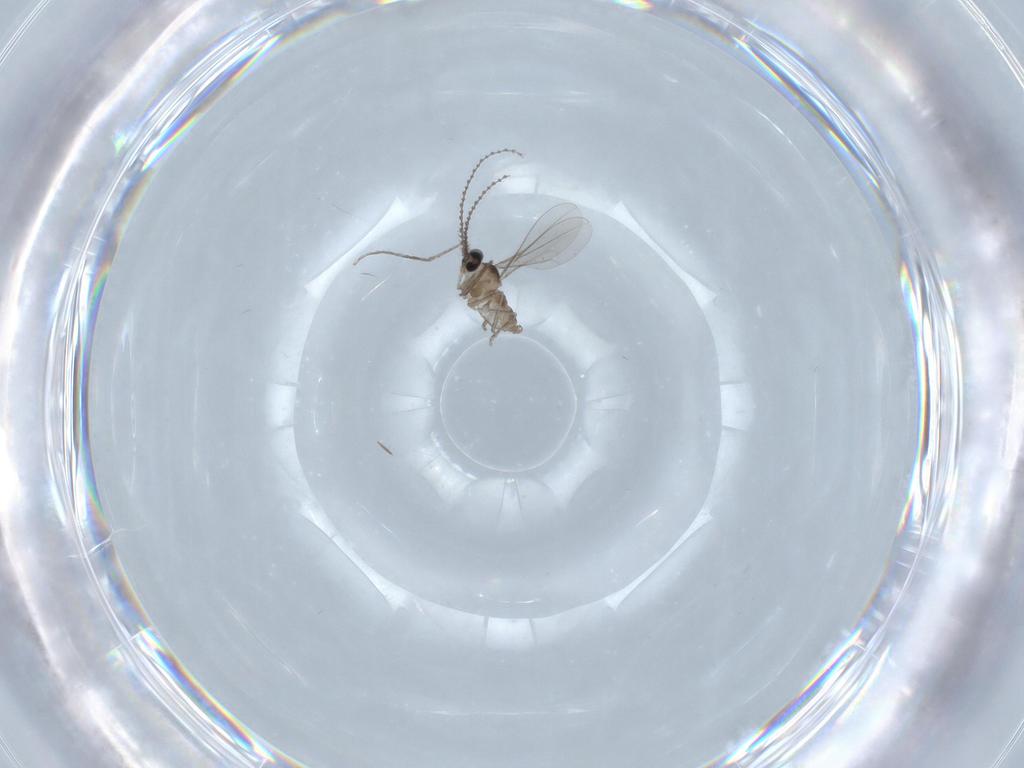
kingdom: Animalia
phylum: Arthropoda
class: Insecta
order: Diptera
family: Cecidomyiidae
